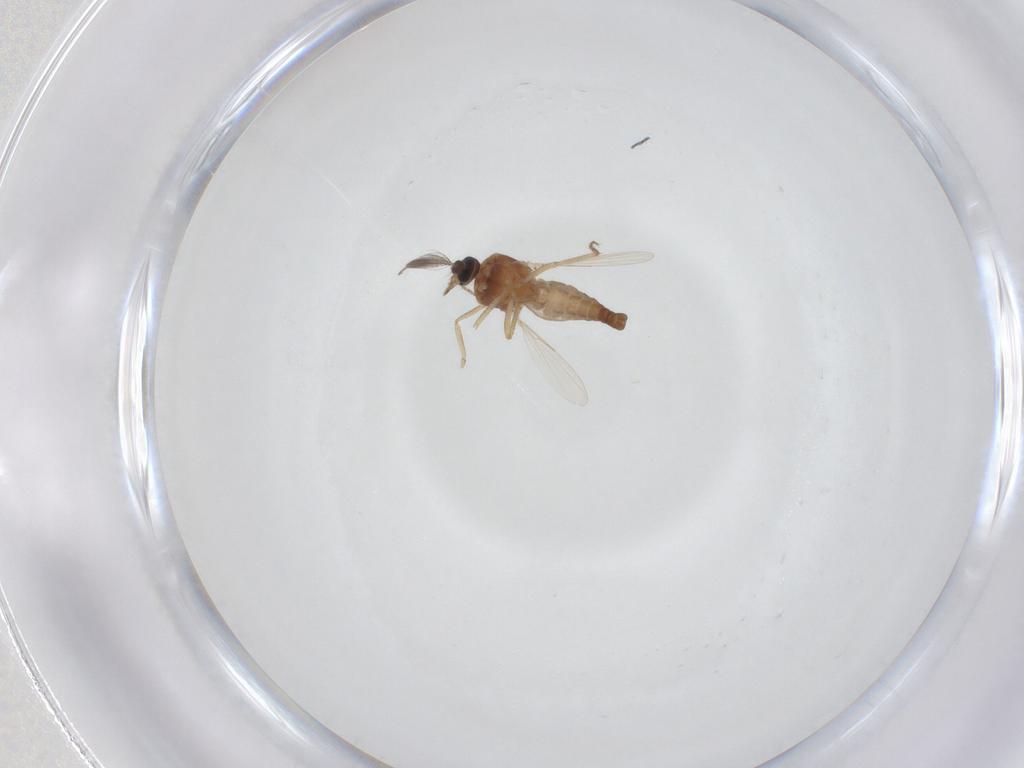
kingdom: Animalia
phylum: Arthropoda
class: Insecta
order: Diptera
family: Ceratopogonidae
